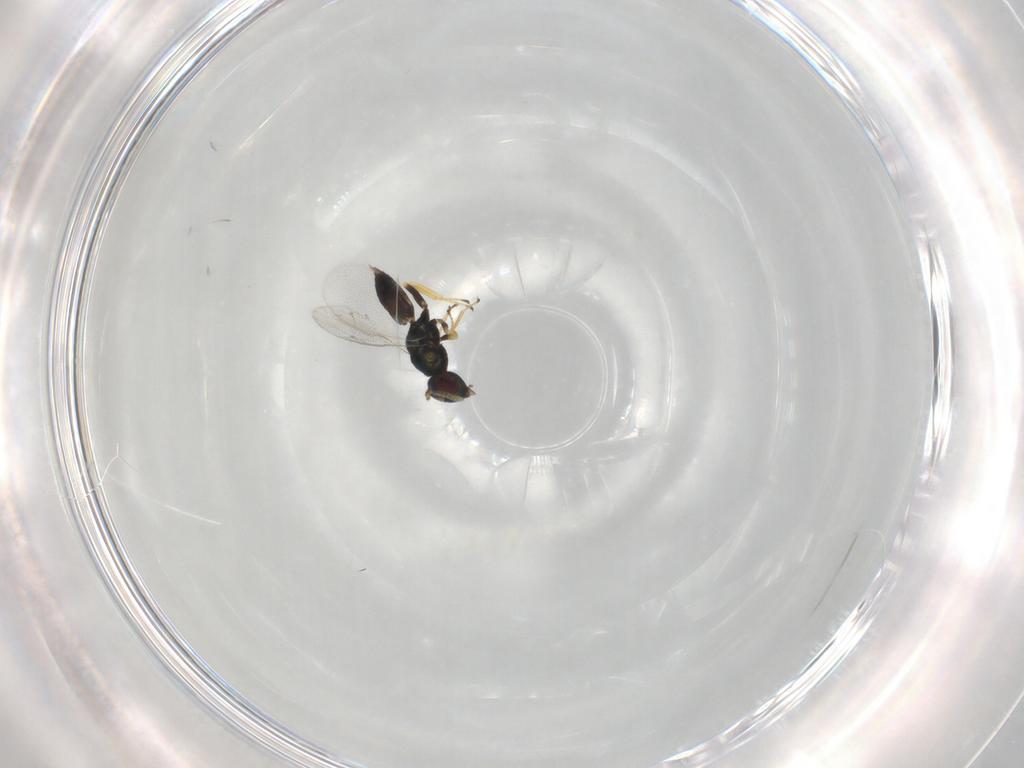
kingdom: Animalia
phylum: Arthropoda
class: Insecta
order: Hymenoptera
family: Pteromalidae
